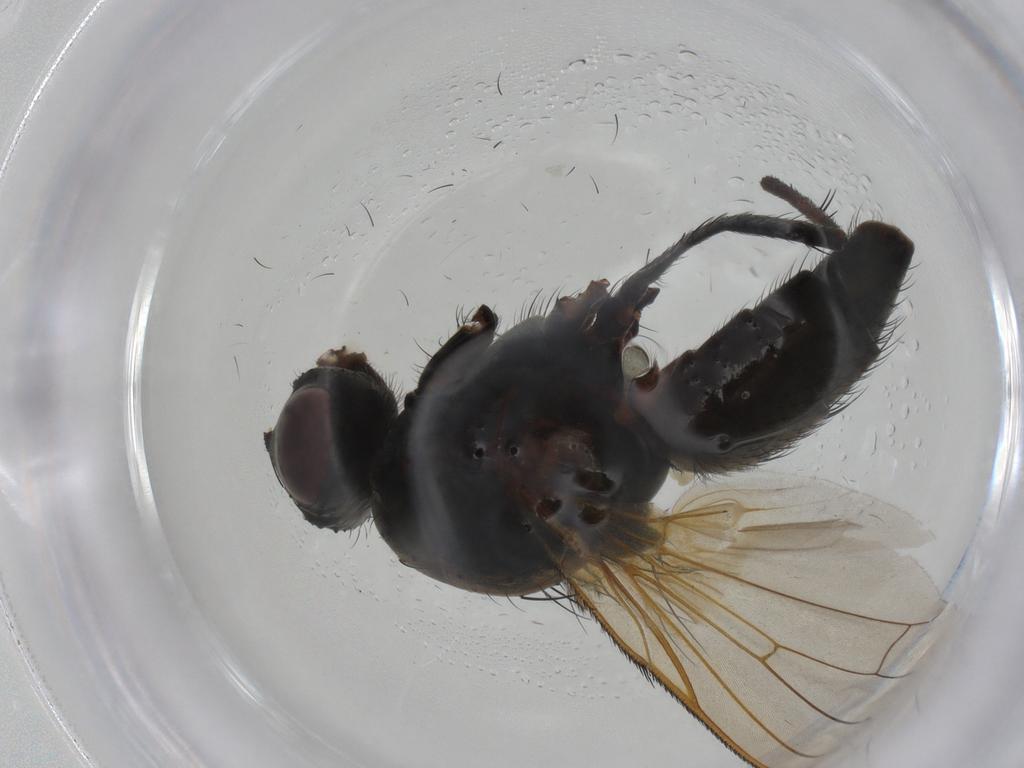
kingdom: Animalia
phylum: Arthropoda
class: Insecta
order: Diptera
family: Anthomyiidae
